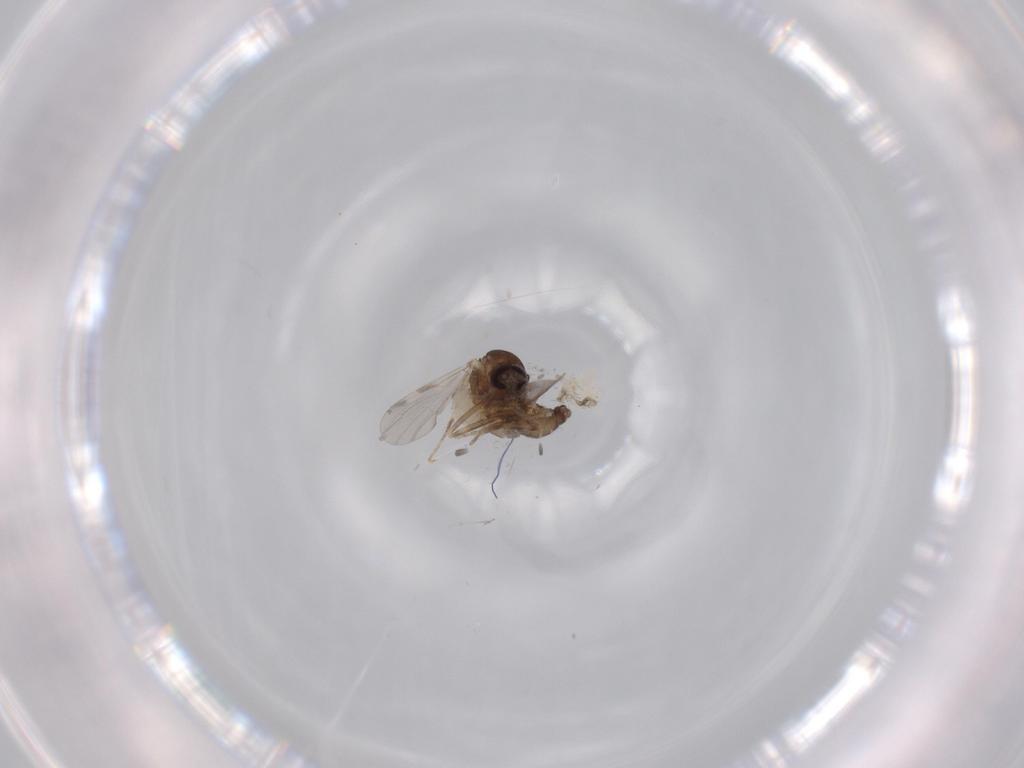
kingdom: Animalia
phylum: Arthropoda
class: Insecta
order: Diptera
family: Ceratopogonidae
